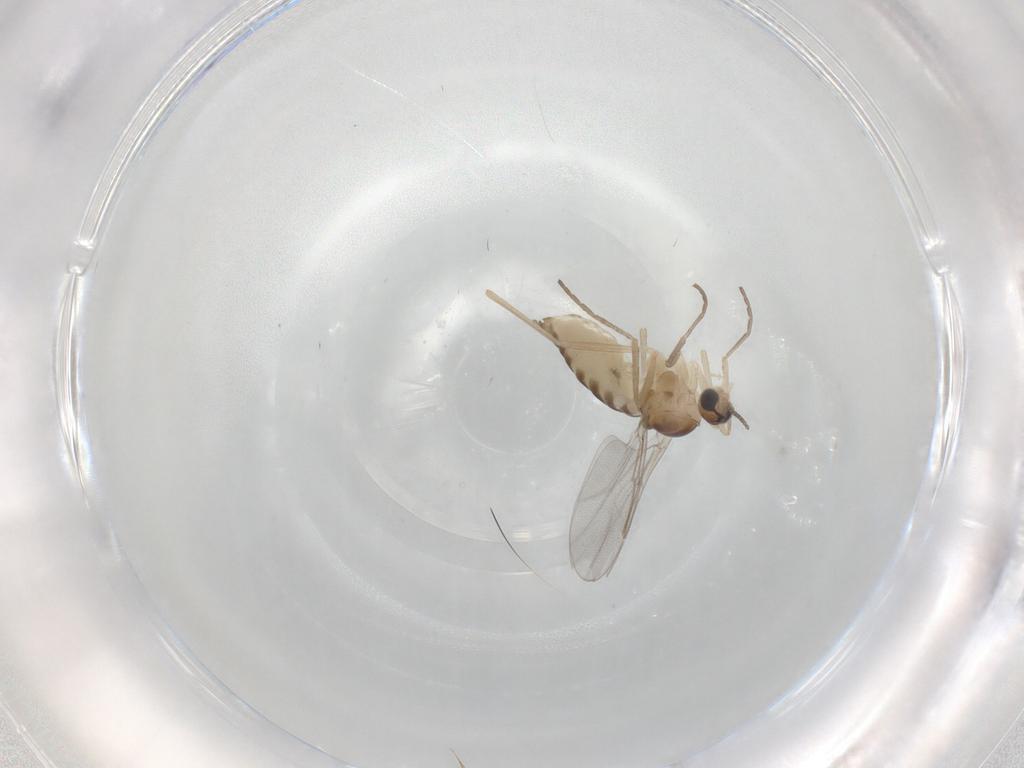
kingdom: Animalia
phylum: Arthropoda
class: Insecta
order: Diptera
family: Cecidomyiidae
